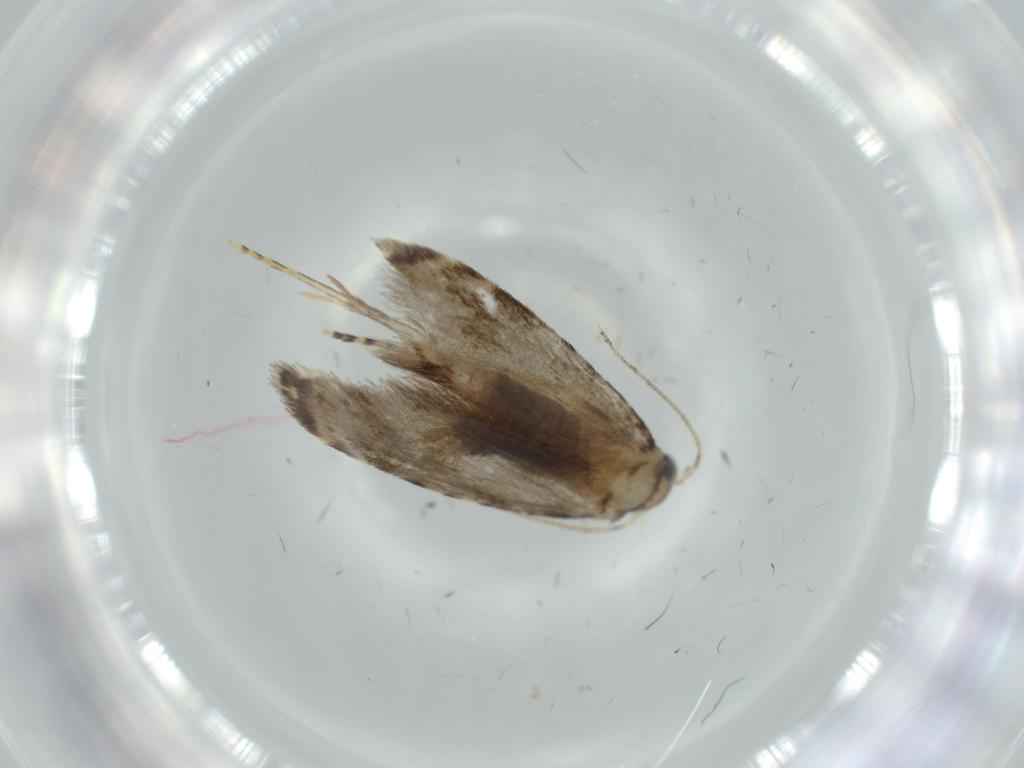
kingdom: Animalia
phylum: Arthropoda
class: Insecta
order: Lepidoptera
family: Tineidae
